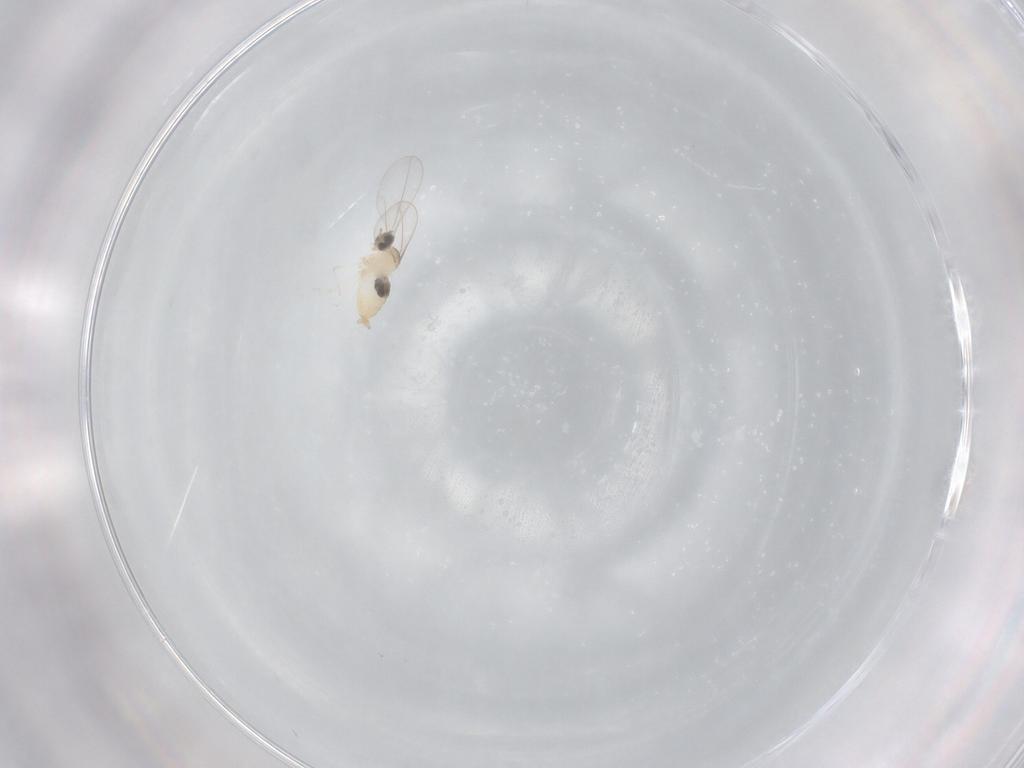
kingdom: Animalia
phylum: Arthropoda
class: Insecta
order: Diptera
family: Cecidomyiidae
